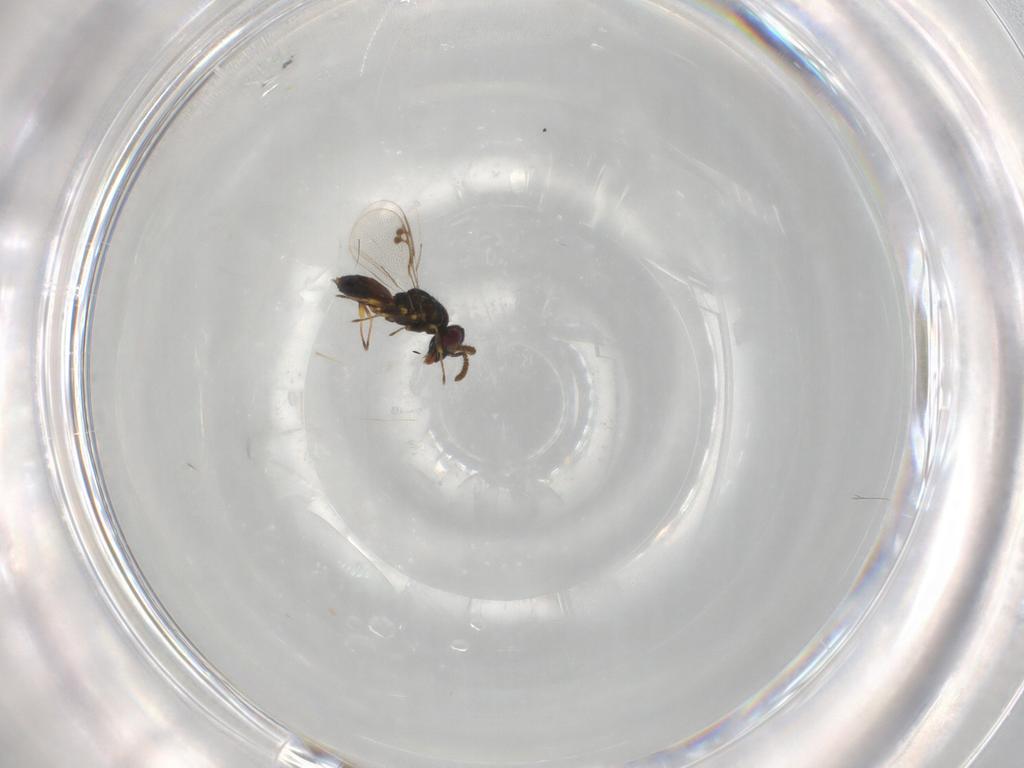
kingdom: Animalia
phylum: Arthropoda
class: Insecta
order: Hymenoptera
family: Pirenidae
